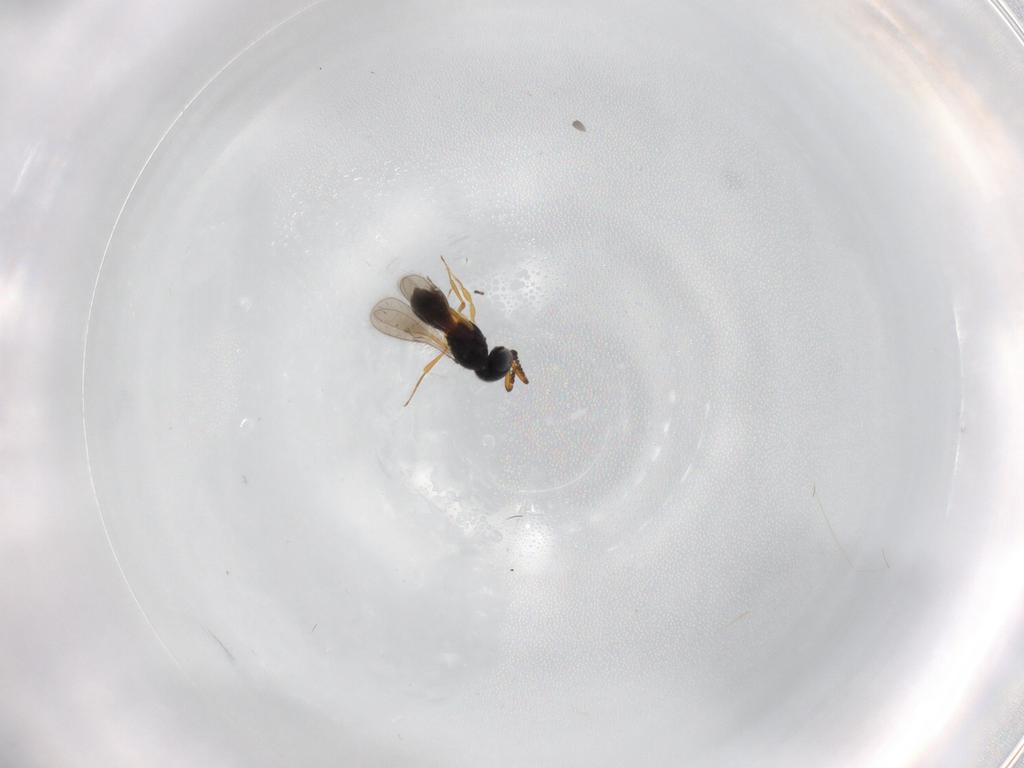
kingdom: Animalia
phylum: Arthropoda
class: Insecta
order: Hymenoptera
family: Scelionidae
